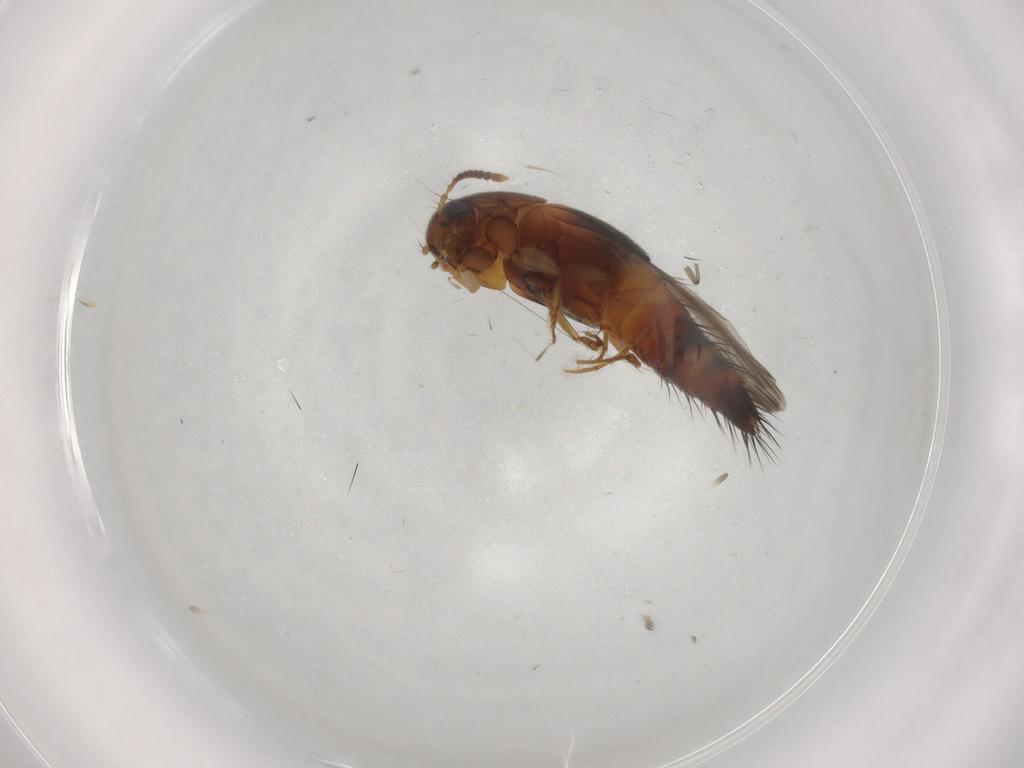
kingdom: Animalia
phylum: Arthropoda
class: Insecta
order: Coleoptera
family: Staphylinidae
